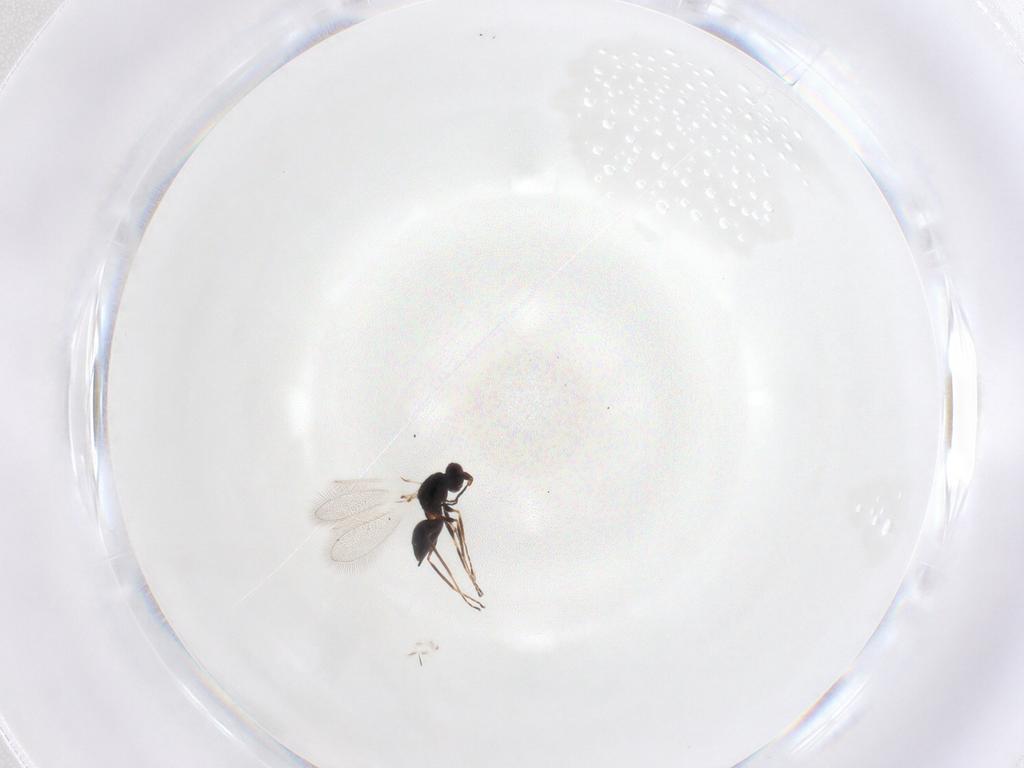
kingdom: Animalia
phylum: Arthropoda
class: Insecta
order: Hymenoptera
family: Mymaridae
